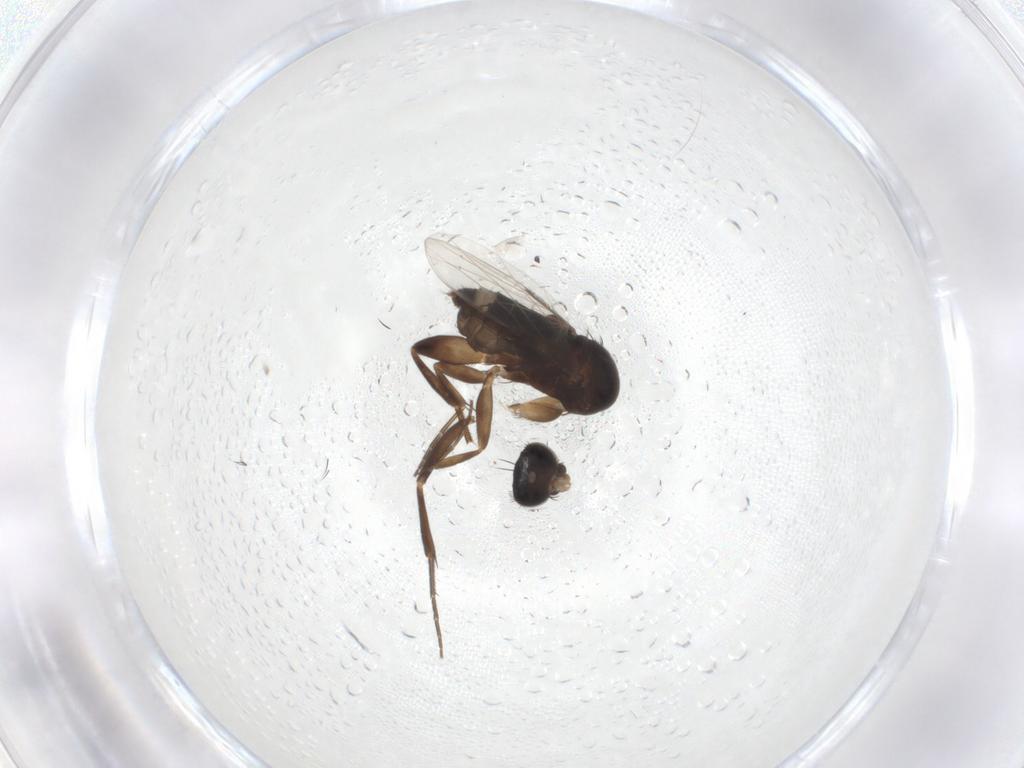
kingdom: Animalia
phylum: Arthropoda
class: Insecta
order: Diptera
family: Phoridae
